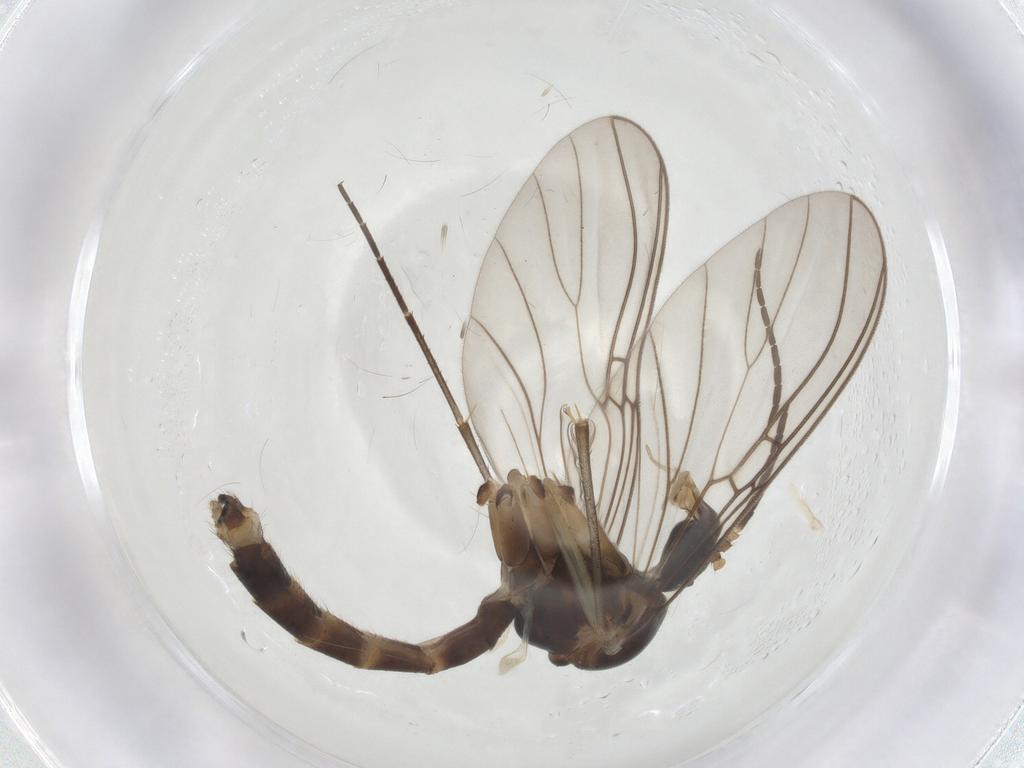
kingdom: Animalia
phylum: Arthropoda
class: Insecta
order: Diptera
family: Mycetophilidae
